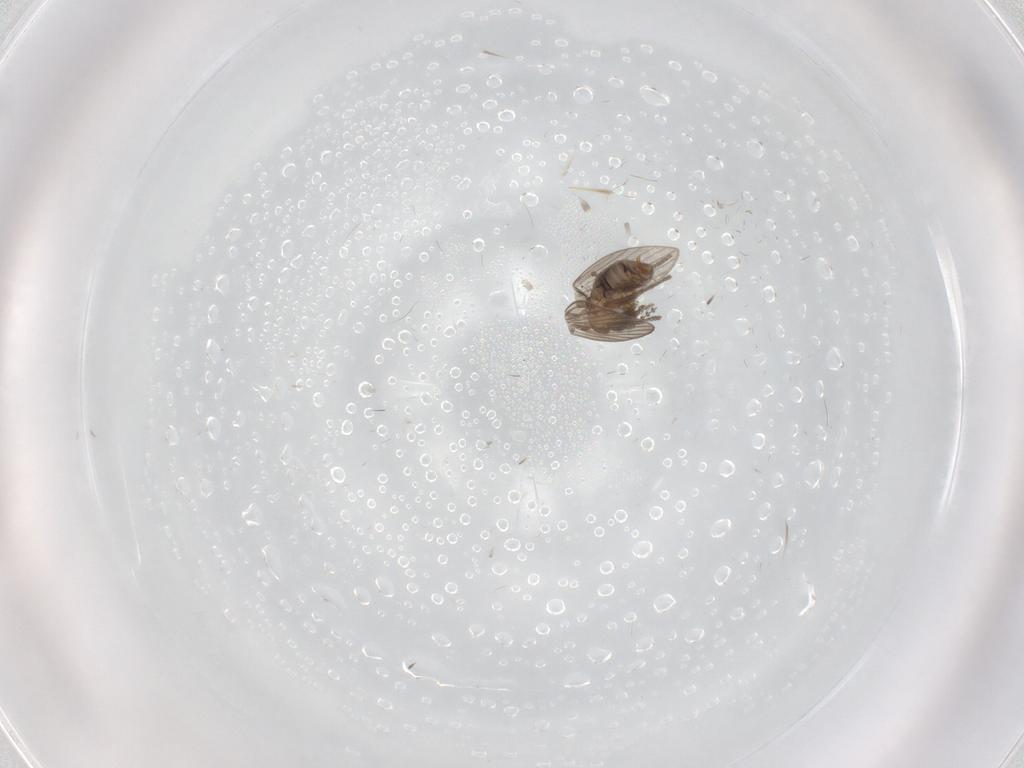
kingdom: Animalia
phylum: Arthropoda
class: Insecta
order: Diptera
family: Psychodidae
